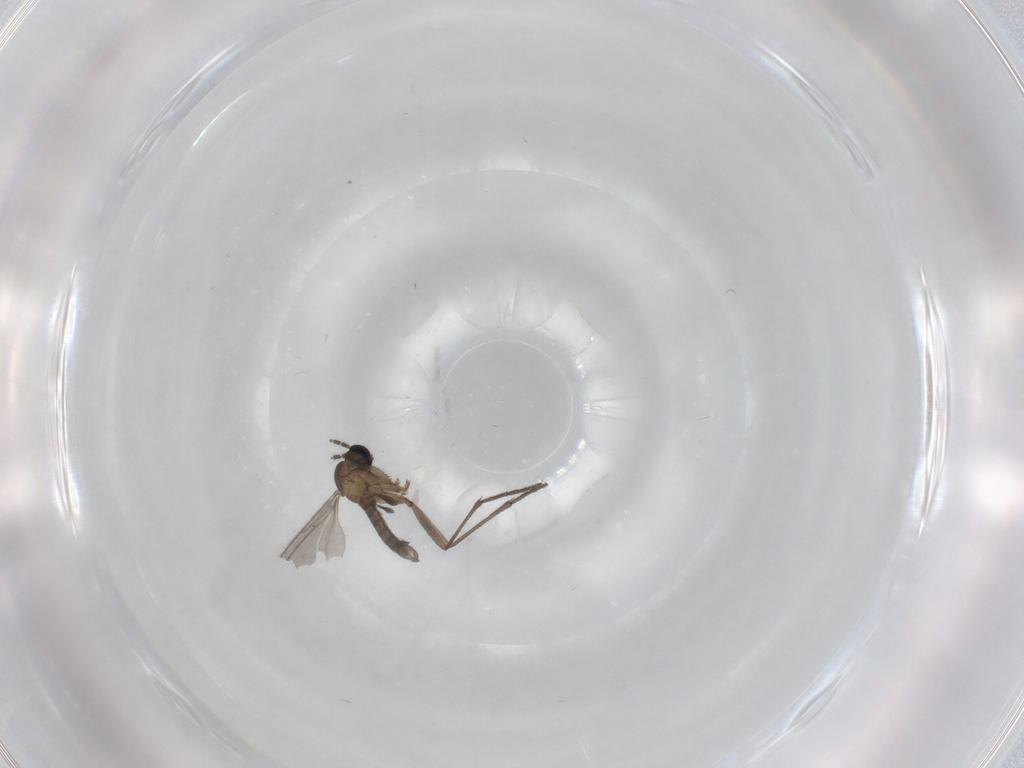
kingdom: Animalia
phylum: Arthropoda
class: Insecta
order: Diptera
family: Sciaridae
